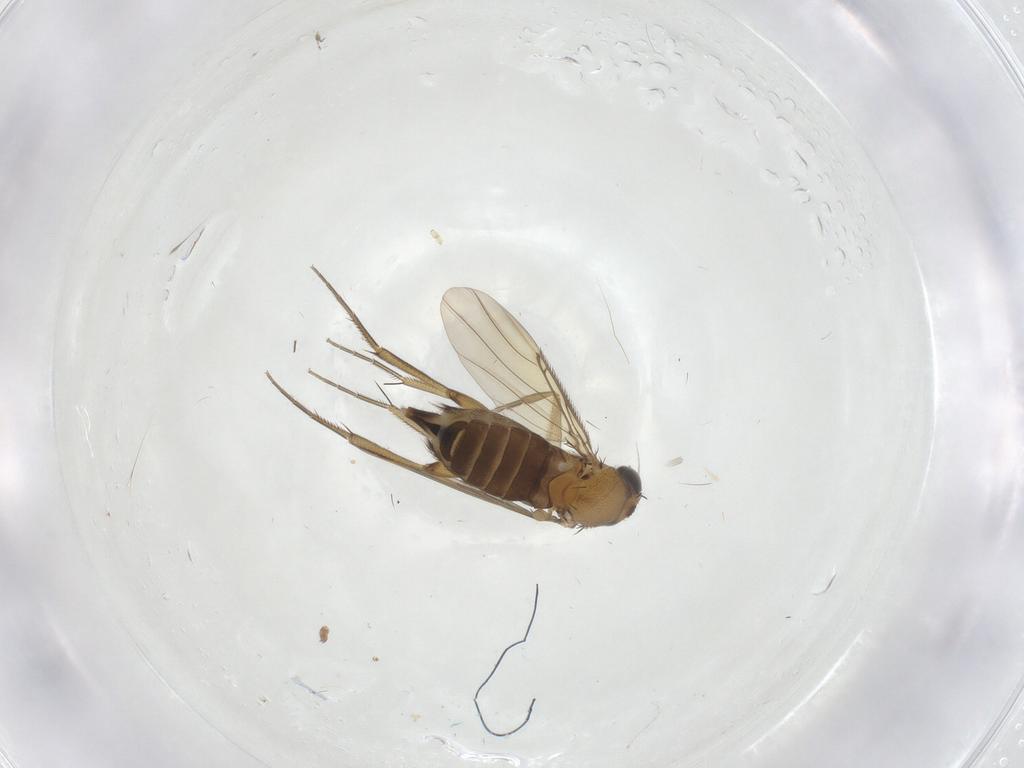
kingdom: Animalia
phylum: Arthropoda
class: Insecta
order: Diptera
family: Phoridae
